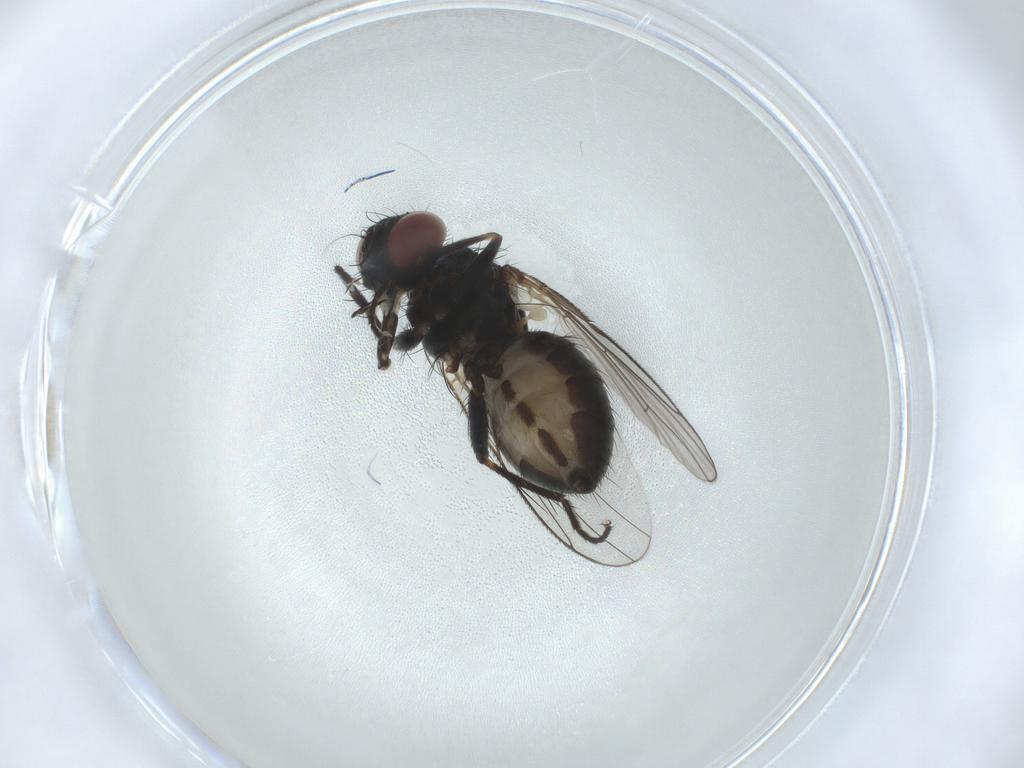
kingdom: Animalia
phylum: Arthropoda
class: Insecta
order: Diptera
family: Muscidae
